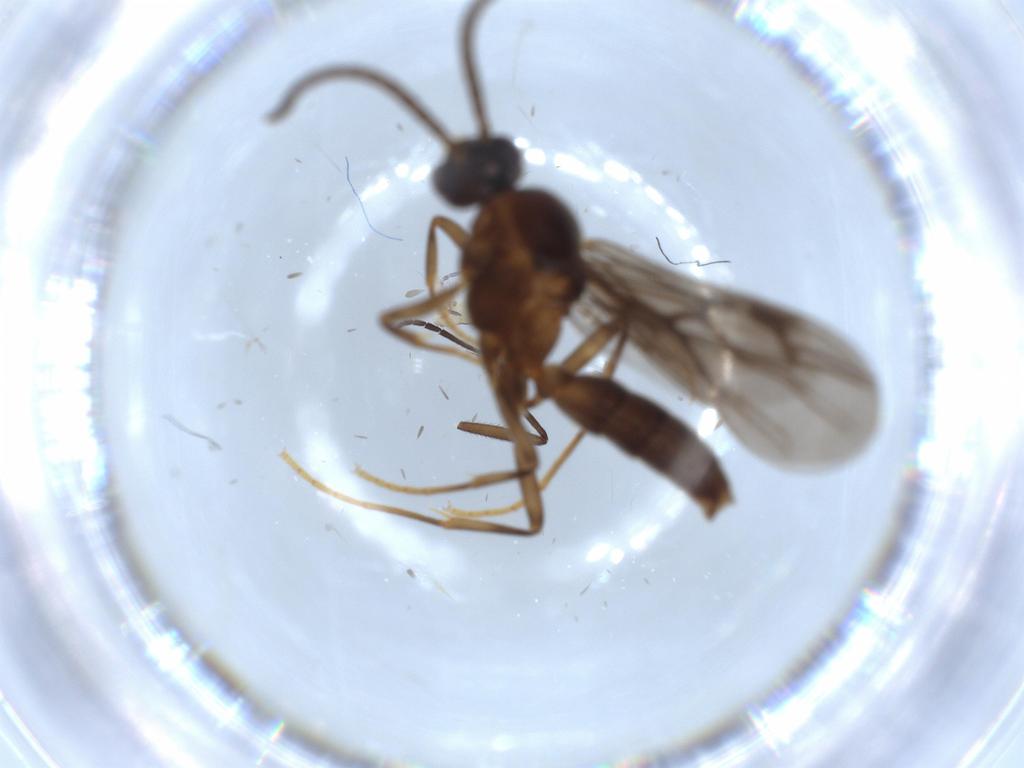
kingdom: Animalia
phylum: Arthropoda
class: Insecta
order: Hymenoptera
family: Formicidae
